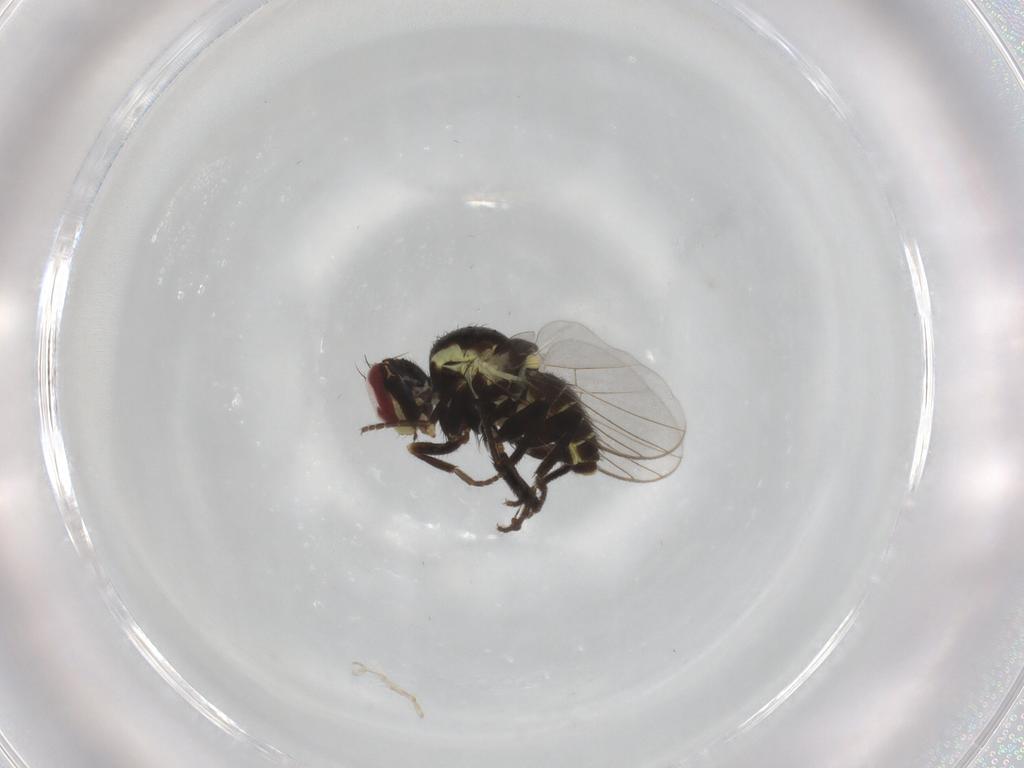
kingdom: Animalia
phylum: Arthropoda
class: Insecta
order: Diptera
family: Agromyzidae
